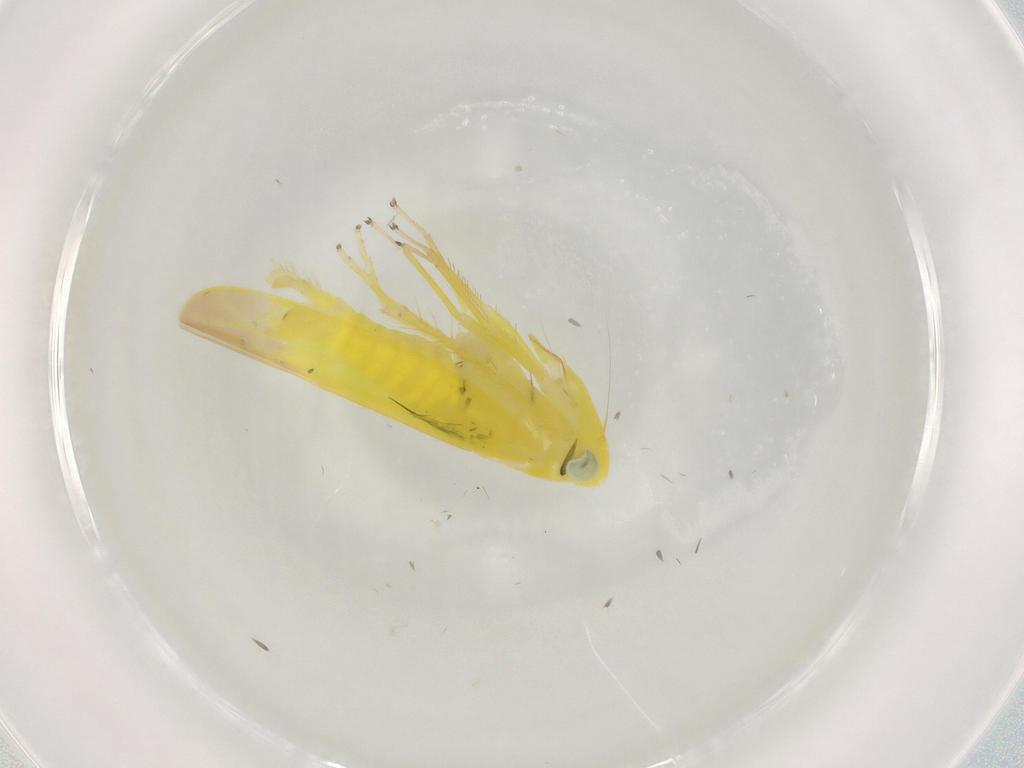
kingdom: Animalia
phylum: Arthropoda
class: Insecta
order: Hemiptera
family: Cicadellidae
